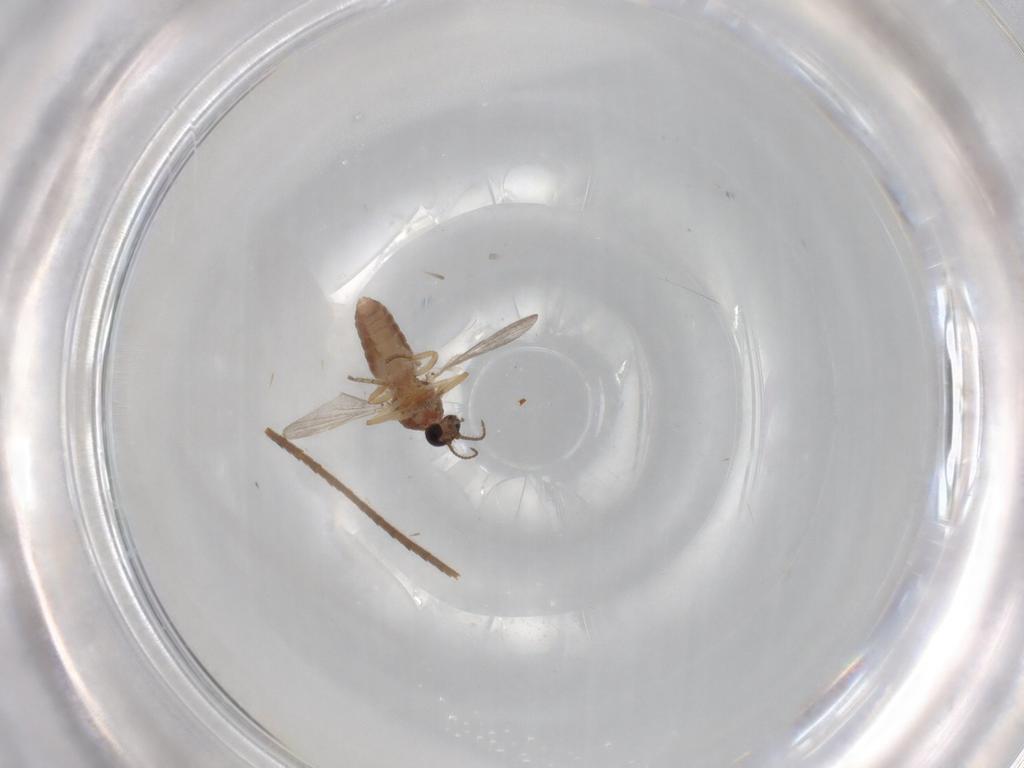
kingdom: Animalia
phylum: Arthropoda
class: Insecta
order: Diptera
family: Ceratopogonidae
